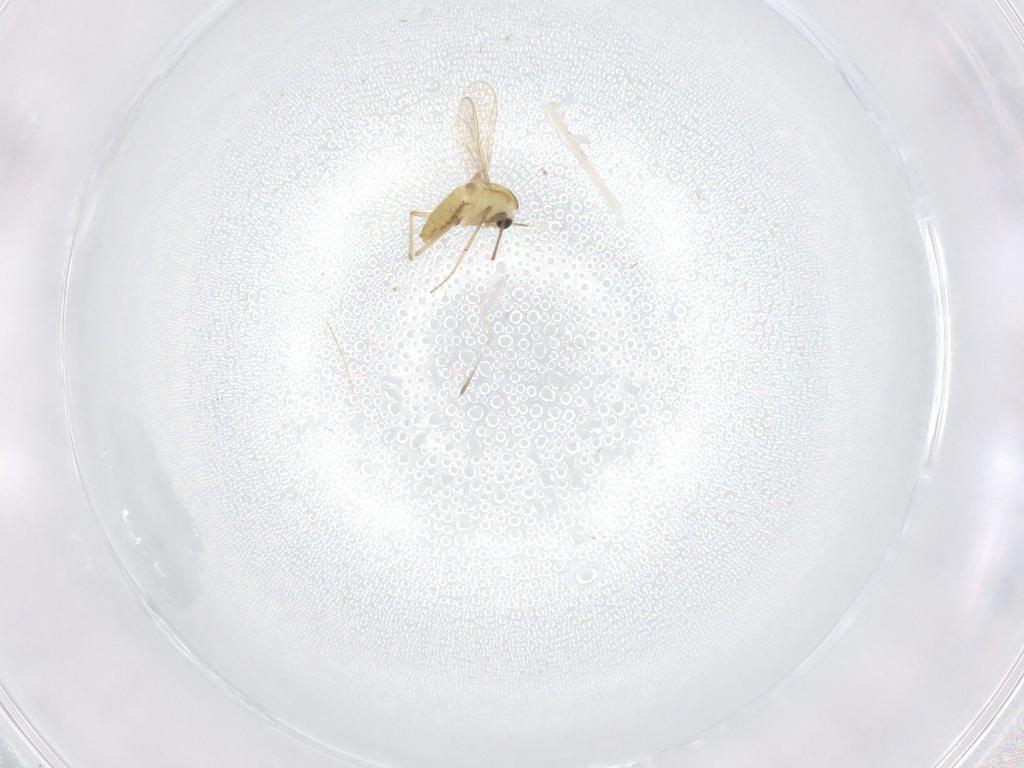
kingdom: Animalia
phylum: Arthropoda
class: Insecta
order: Diptera
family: Chironomidae
